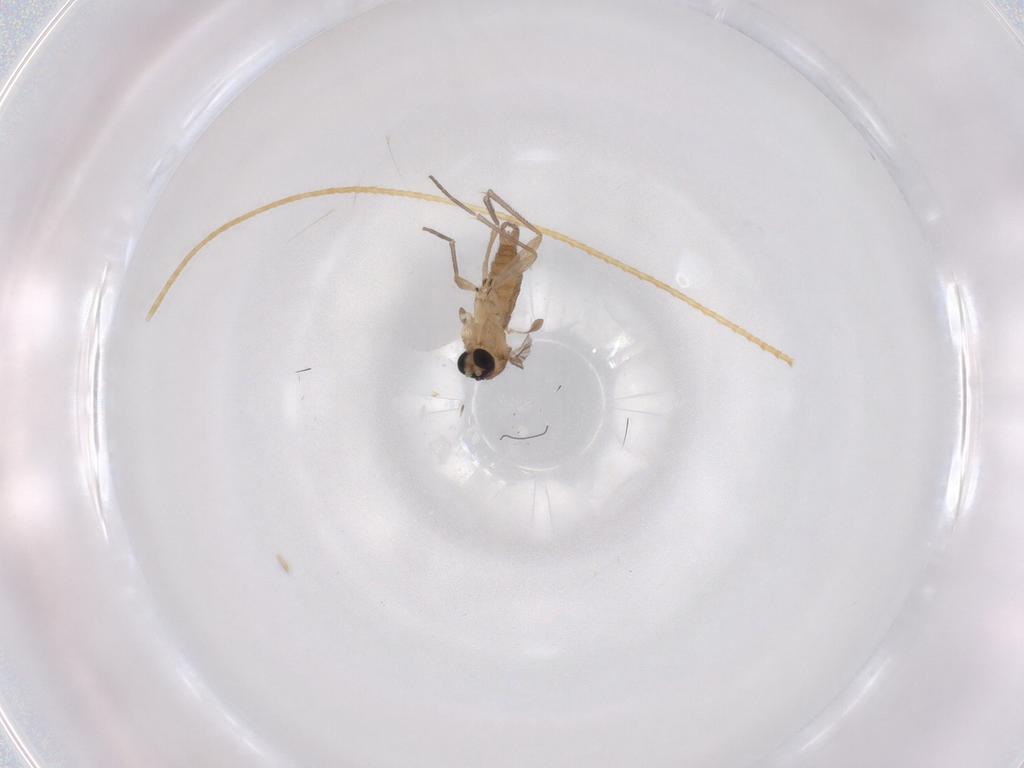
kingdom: Animalia
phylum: Arthropoda
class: Insecta
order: Diptera
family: Sciaridae
